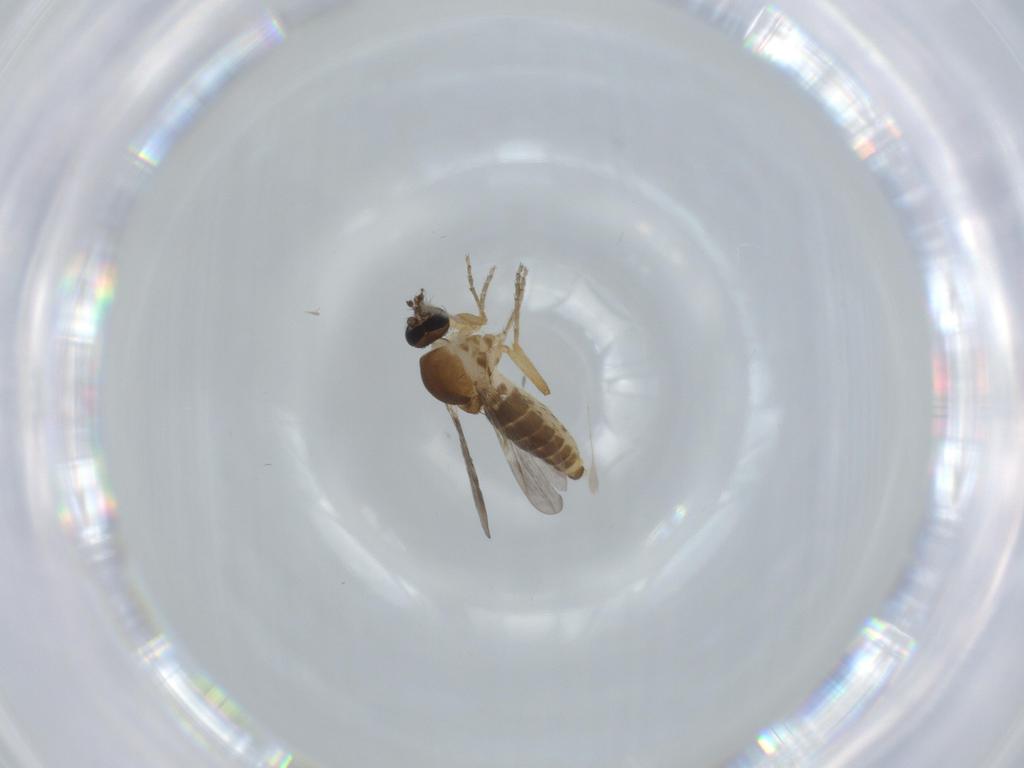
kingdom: Animalia
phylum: Arthropoda
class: Insecta
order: Diptera
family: Ceratopogonidae
